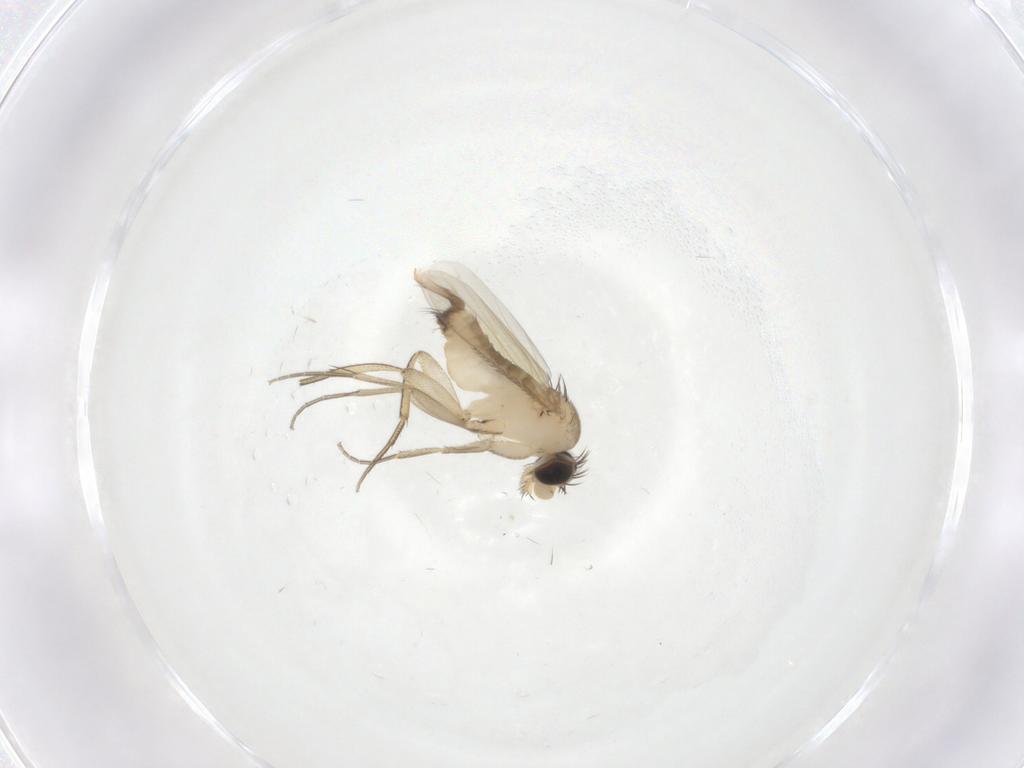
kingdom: Animalia
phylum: Arthropoda
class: Insecta
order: Diptera
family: Phoridae
